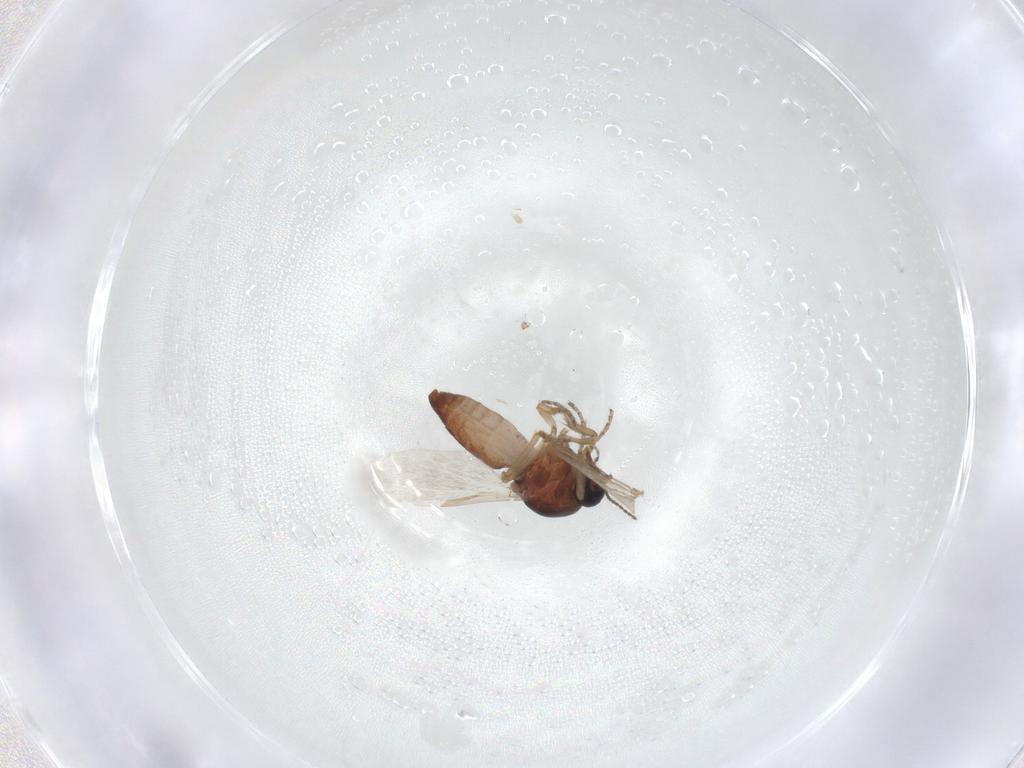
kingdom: Animalia
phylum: Arthropoda
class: Insecta
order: Diptera
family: Ceratopogonidae
